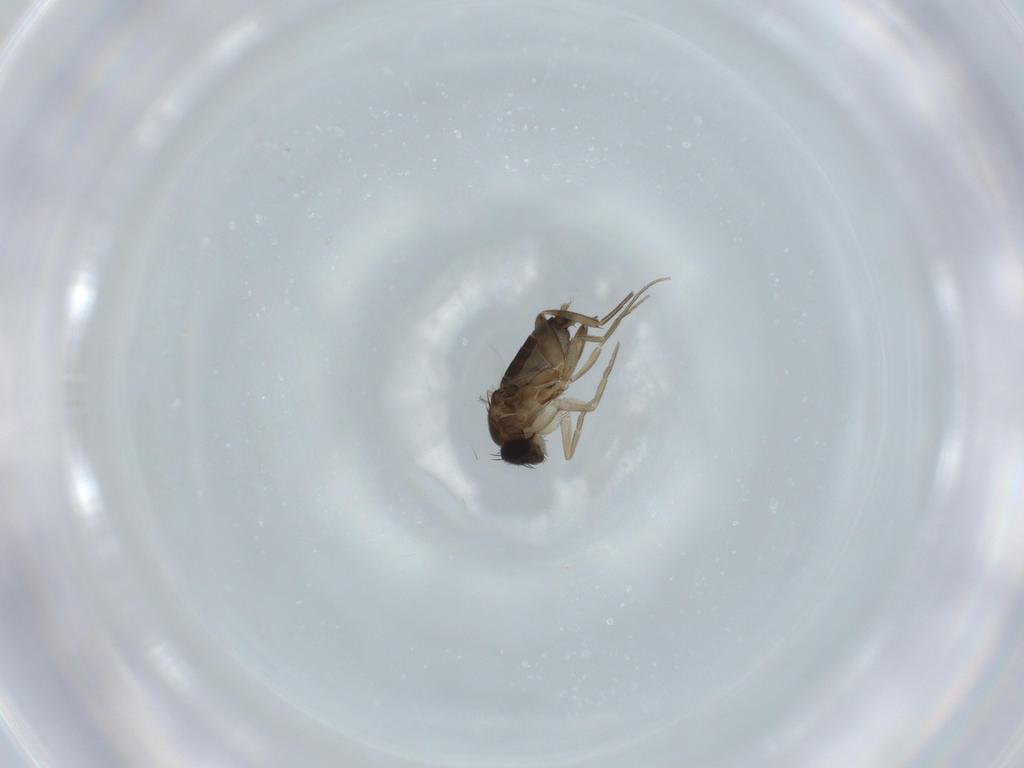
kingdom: Animalia
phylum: Arthropoda
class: Insecta
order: Diptera
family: Phoridae
